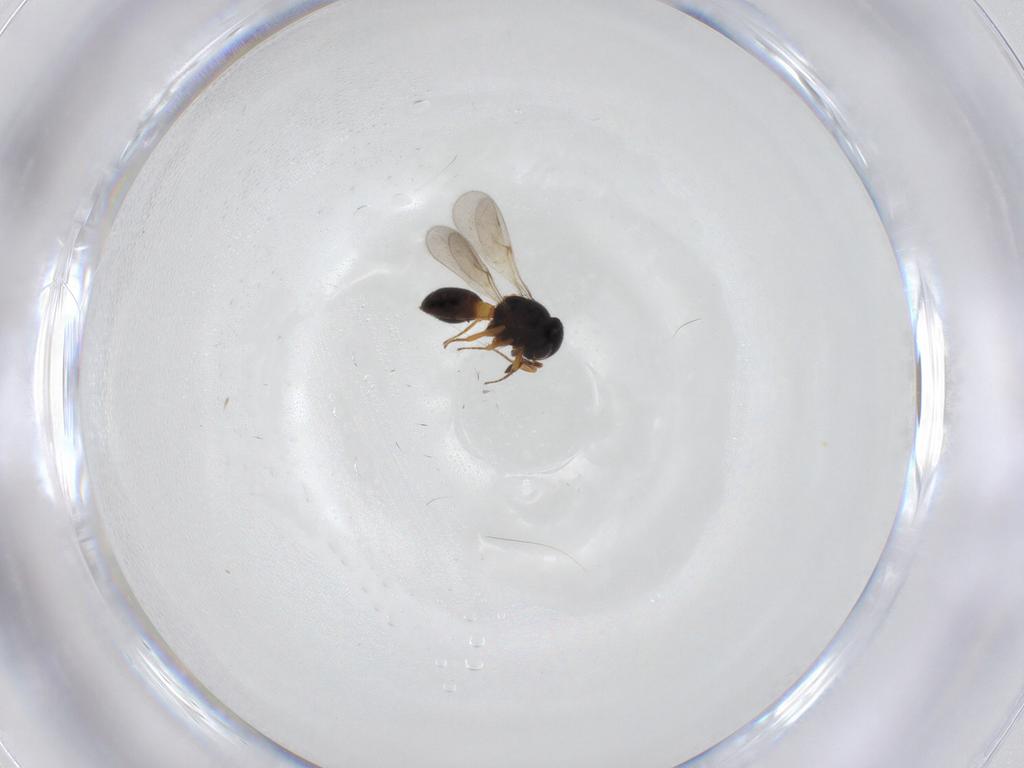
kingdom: Animalia
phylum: Arthropoda
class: Insecta
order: Hymenoptera
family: Scelionidae
